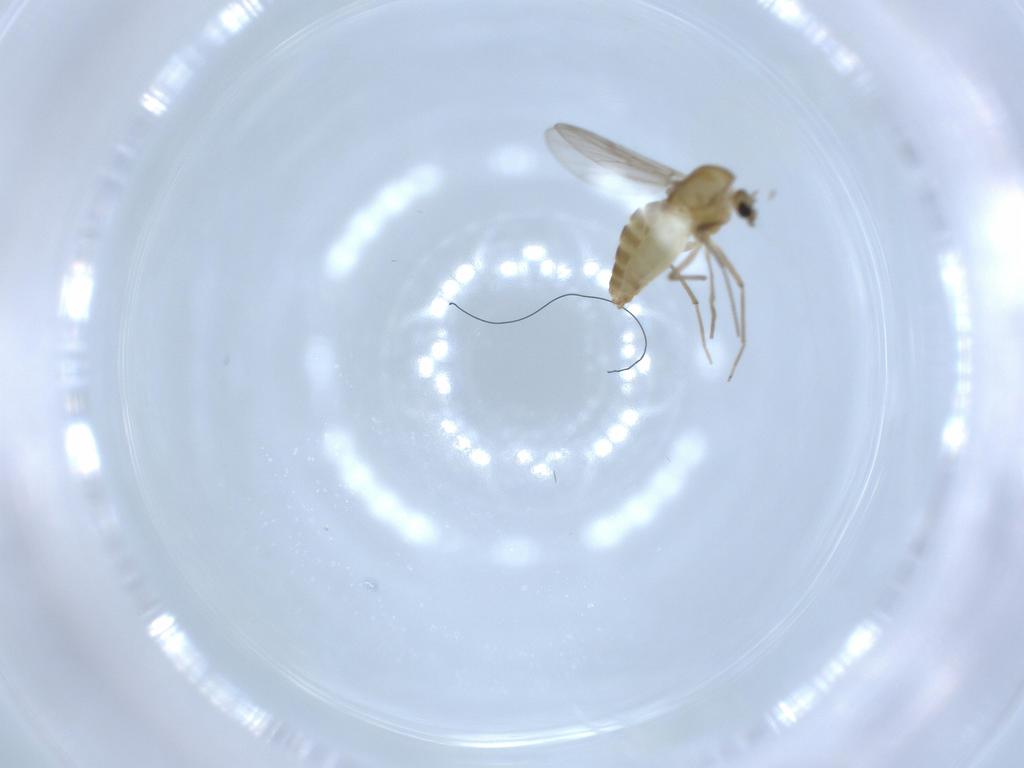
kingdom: Animalia
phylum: Arthropoda
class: Insecta
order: Diptera
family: Chironomidae
